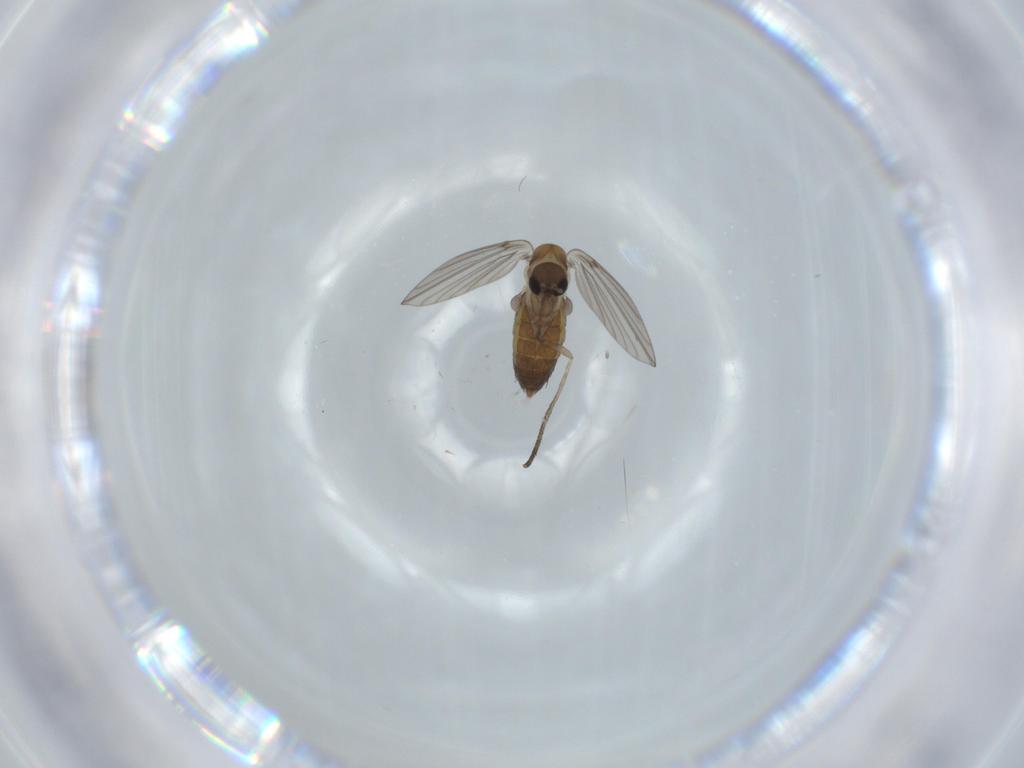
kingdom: Animalia
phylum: Arthropoda
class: Insecta
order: Diptera
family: Psychodidae
